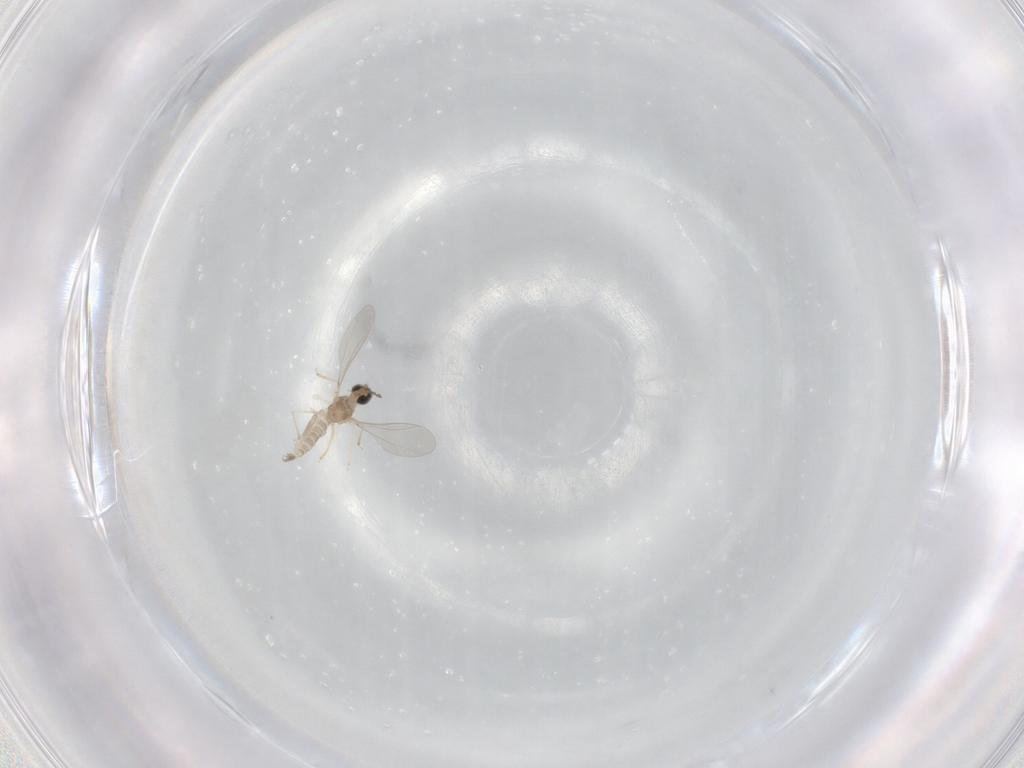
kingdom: Animalia
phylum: Arthropoda
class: Insecta
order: Diptera
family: Cecidomyiidae
